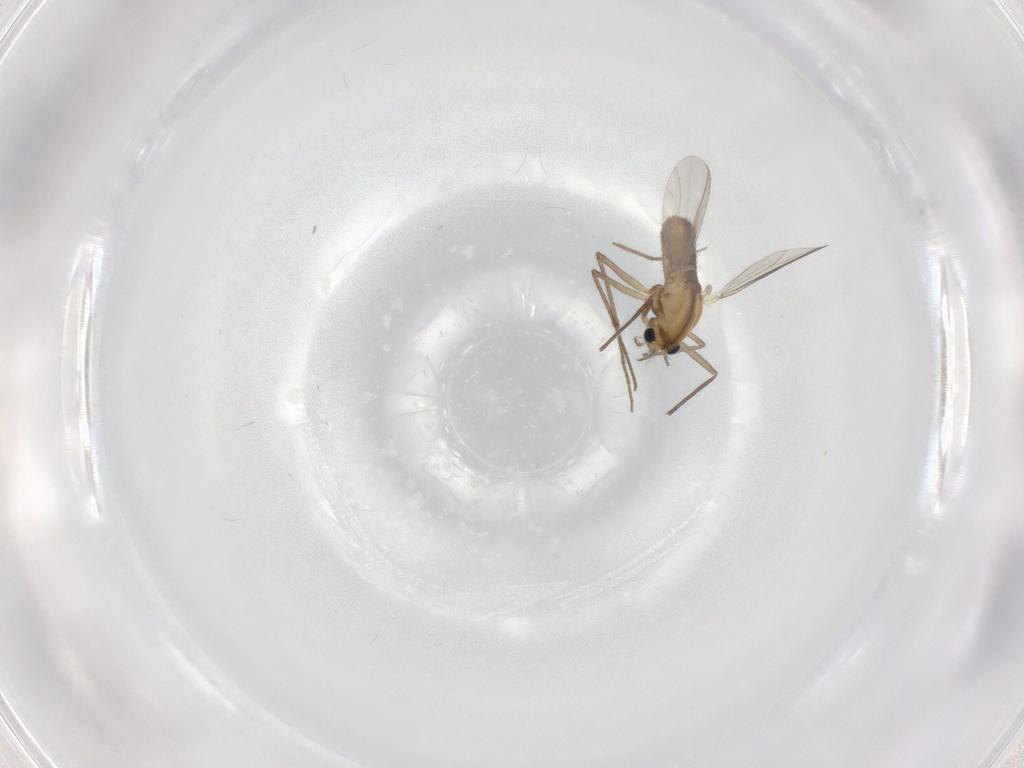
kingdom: Animalia
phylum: Arthropoda
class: Insecta
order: Diptera
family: Chironomidae
